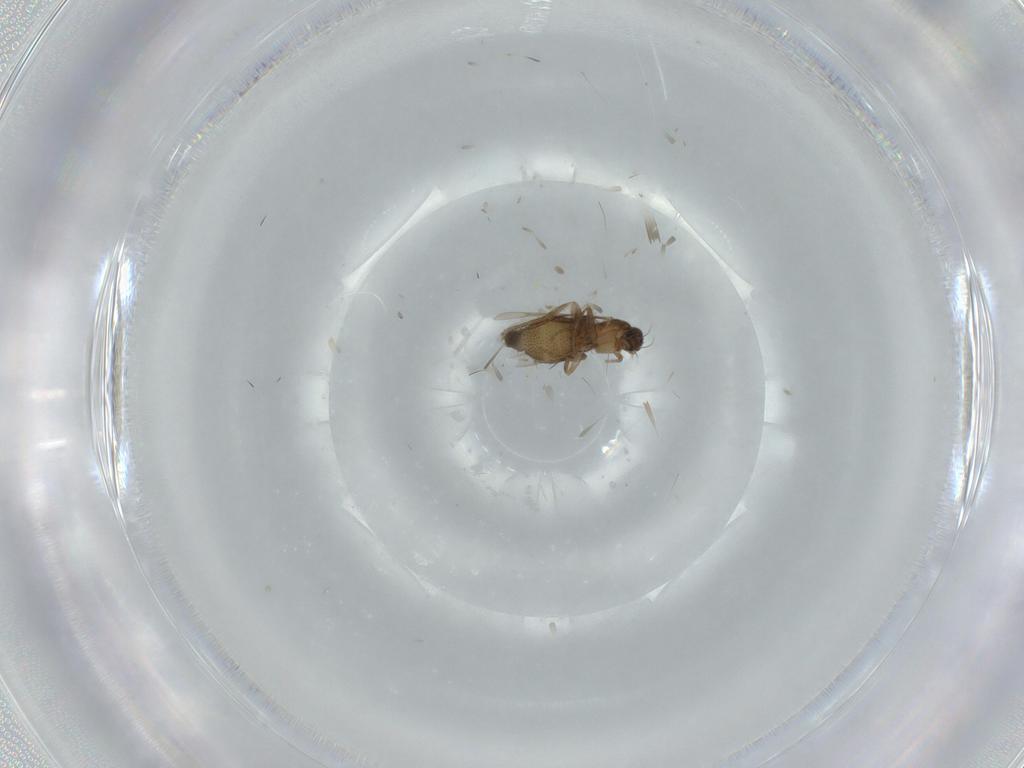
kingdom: Animalia
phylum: Arthropoda
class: Insecta
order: Diptera
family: Phoridae
